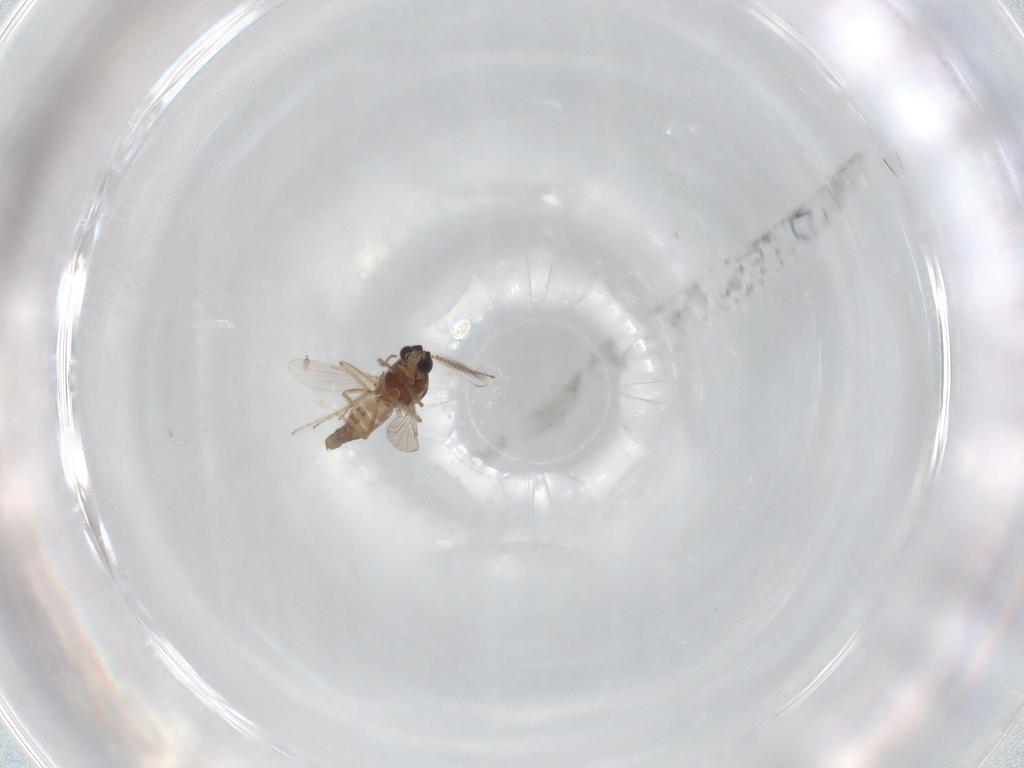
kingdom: Animalia
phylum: Arthropoda
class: Insecta
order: Diptera
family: Ceratopogonidae
